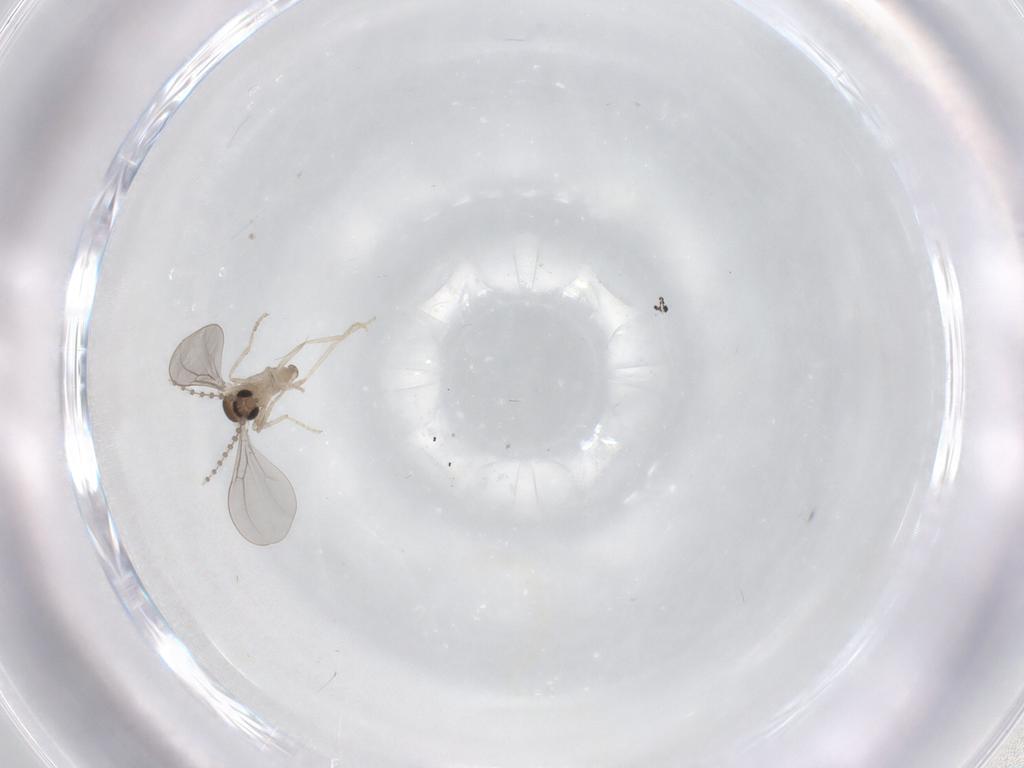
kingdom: Animalia
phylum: Arthropoda
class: Insecta
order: Diptera
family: Cecidomyiidae
